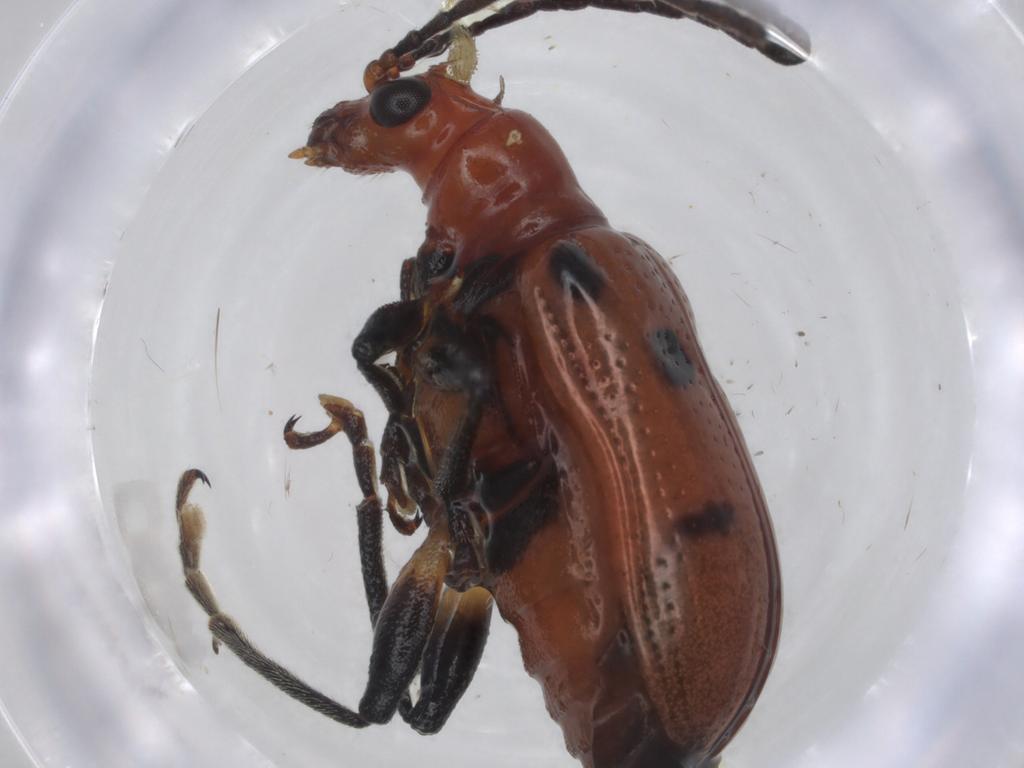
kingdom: Animalia
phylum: Arthropoda
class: Insecta
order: Coleoptera
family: Chrysomelidae
